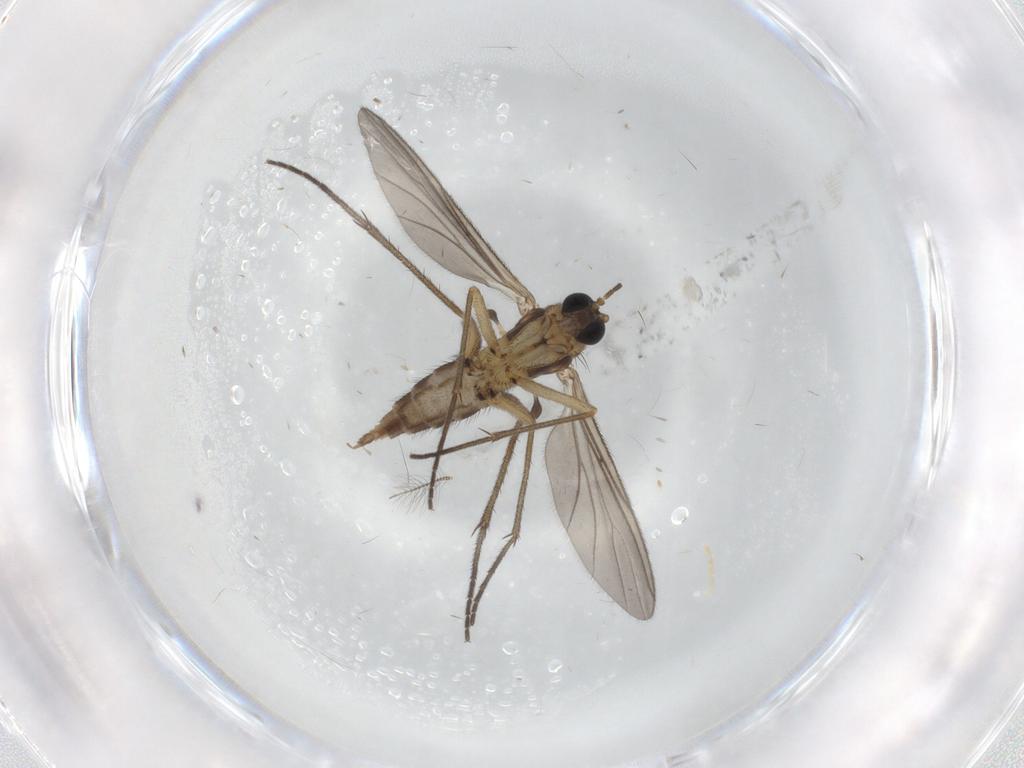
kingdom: Animalia
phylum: Arthropoda
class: Insecta
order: Diptera
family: Sciaridae
